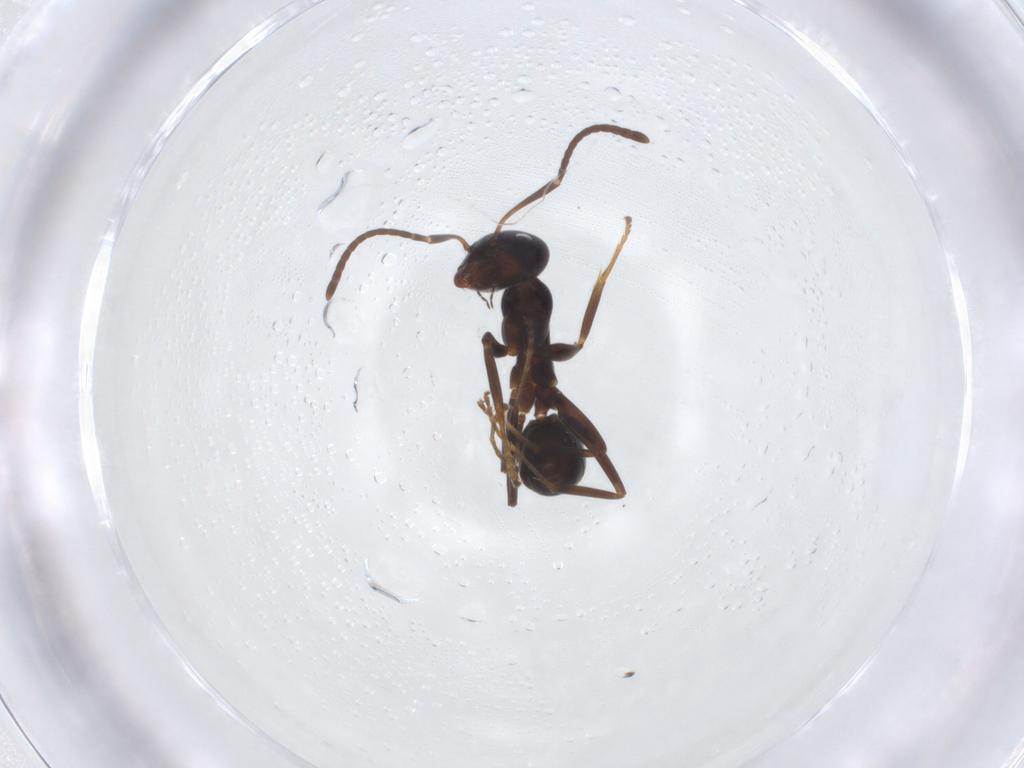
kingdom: Animalia
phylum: Arthropoda
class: Insecta
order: Hymenoptera
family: Formicidae
